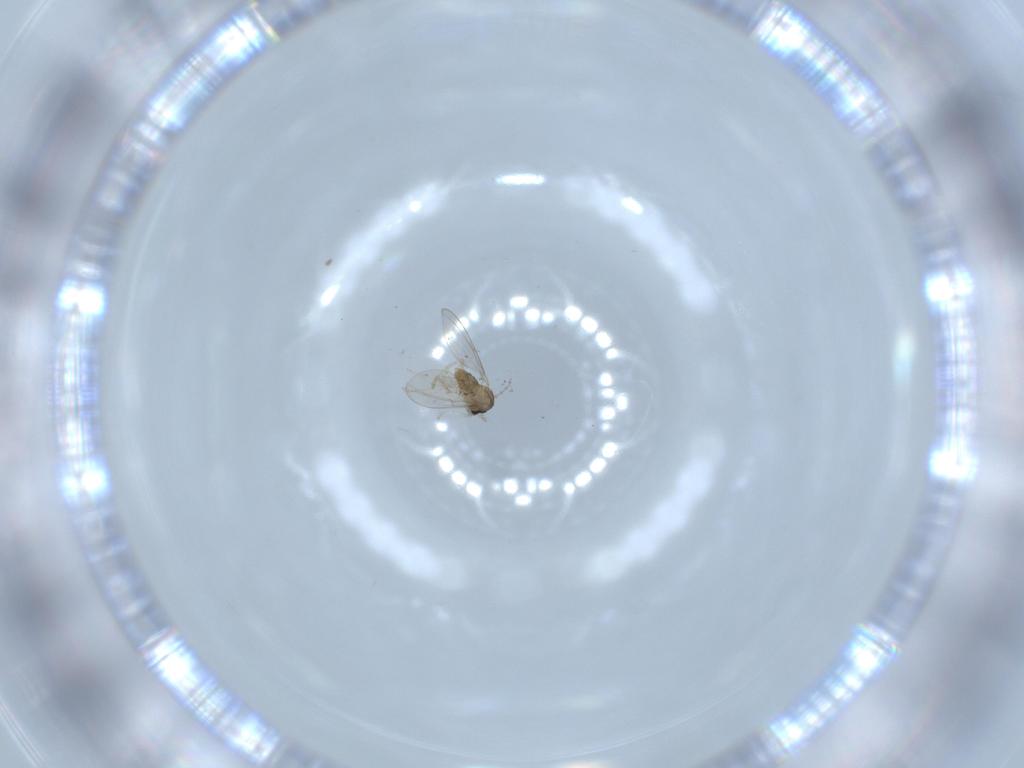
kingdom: Animalia
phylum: Arthropoda
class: Insecta
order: Diptera
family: Cecidomyiidae
